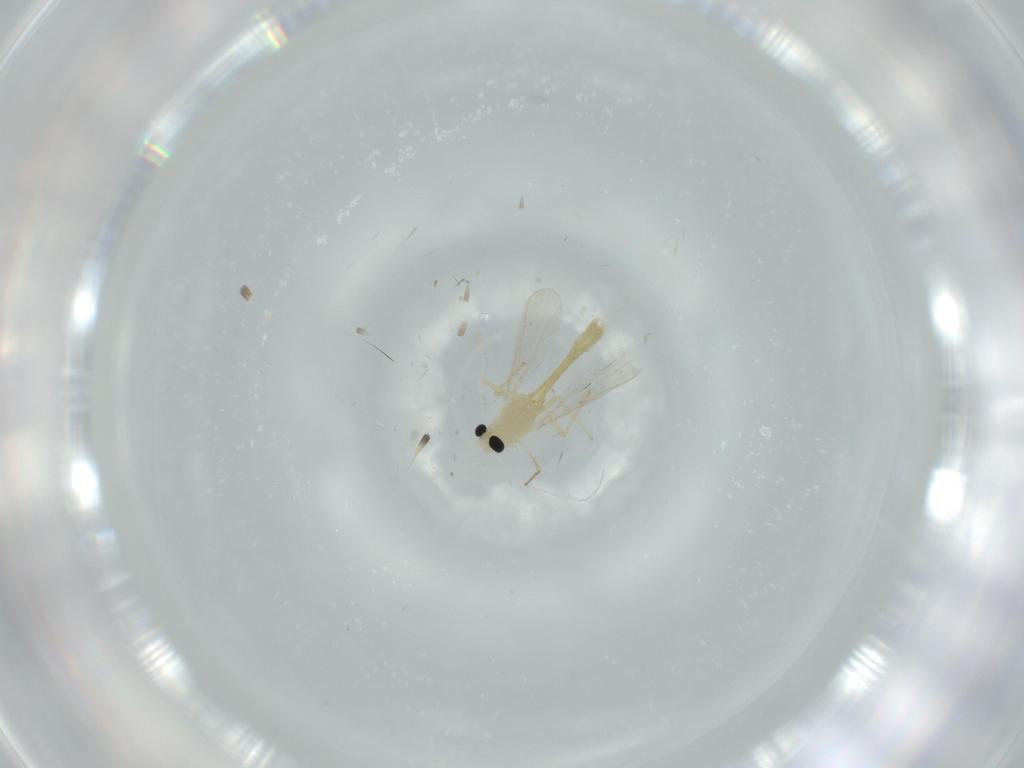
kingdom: Animalia
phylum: Arthropoda
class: Insecta
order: Diptera
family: Chironomidae
